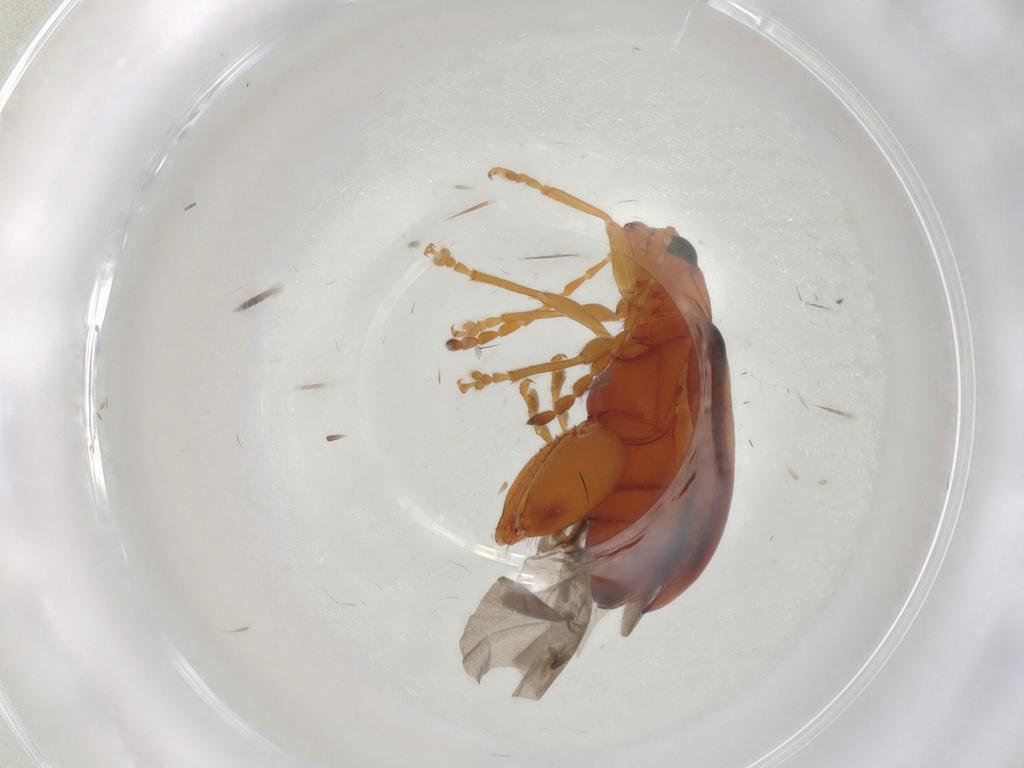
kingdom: Animalia
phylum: Arthropoda
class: Insecta
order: Coleoptera
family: Chrysomelidae
